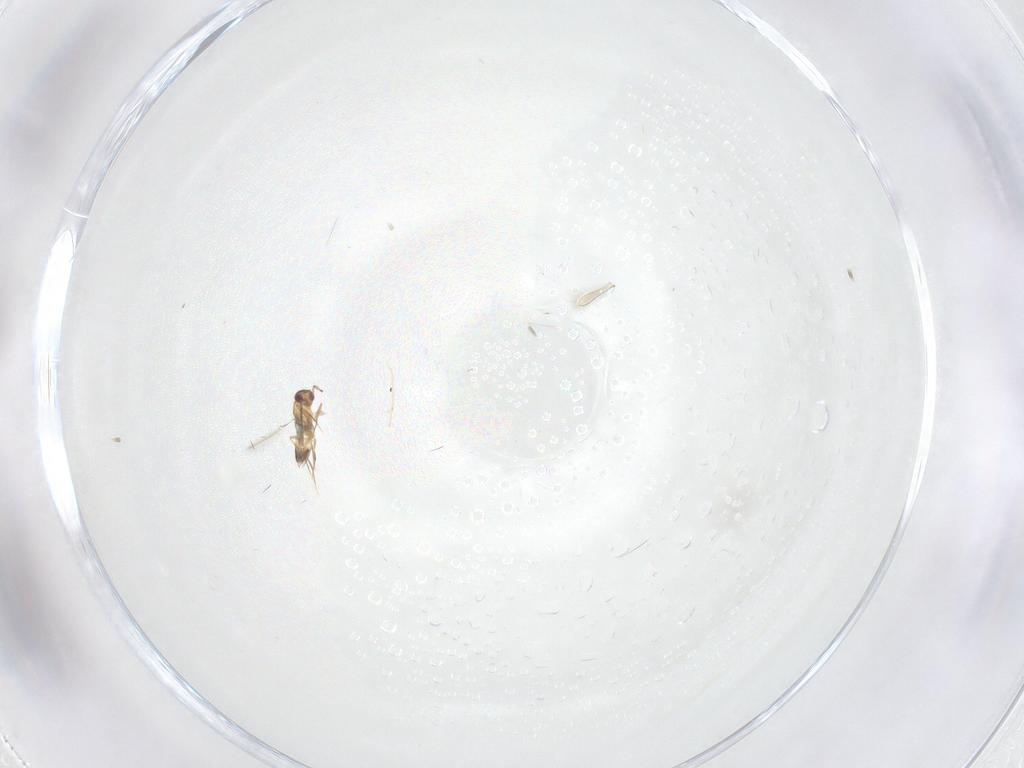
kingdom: Animalia
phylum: Arthropoda
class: Insecta
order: Hymenoptera
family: Mymaridae
